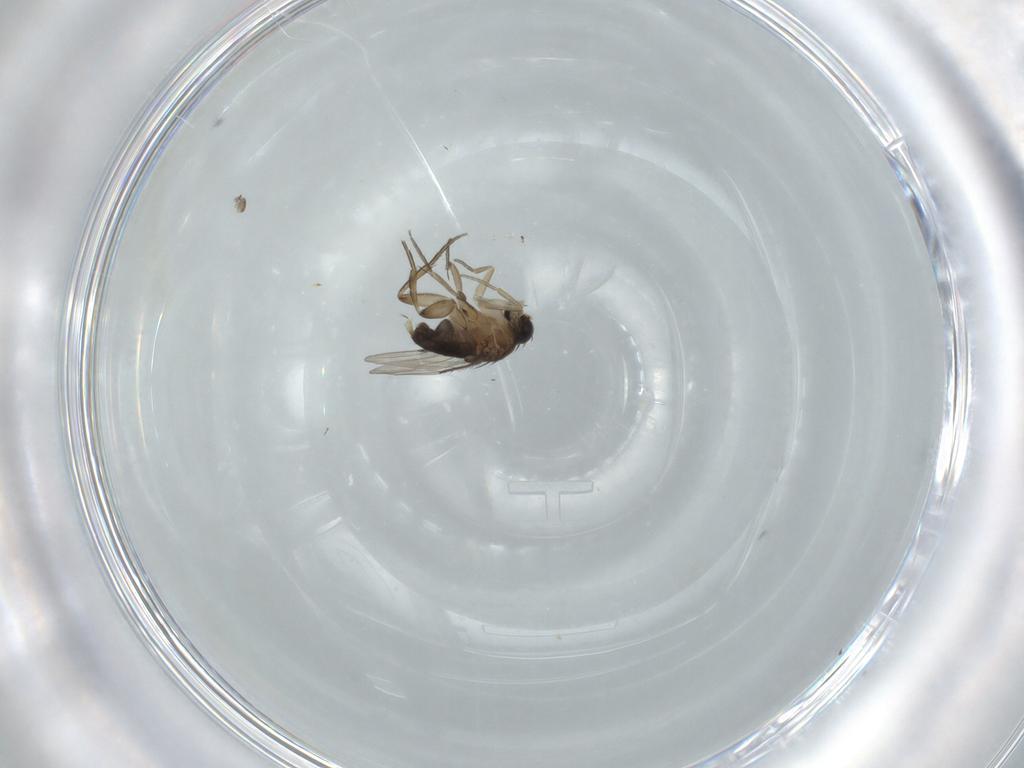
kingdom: Animalia
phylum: Arthropoda
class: Insecta
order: Diptera
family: Phoridae
